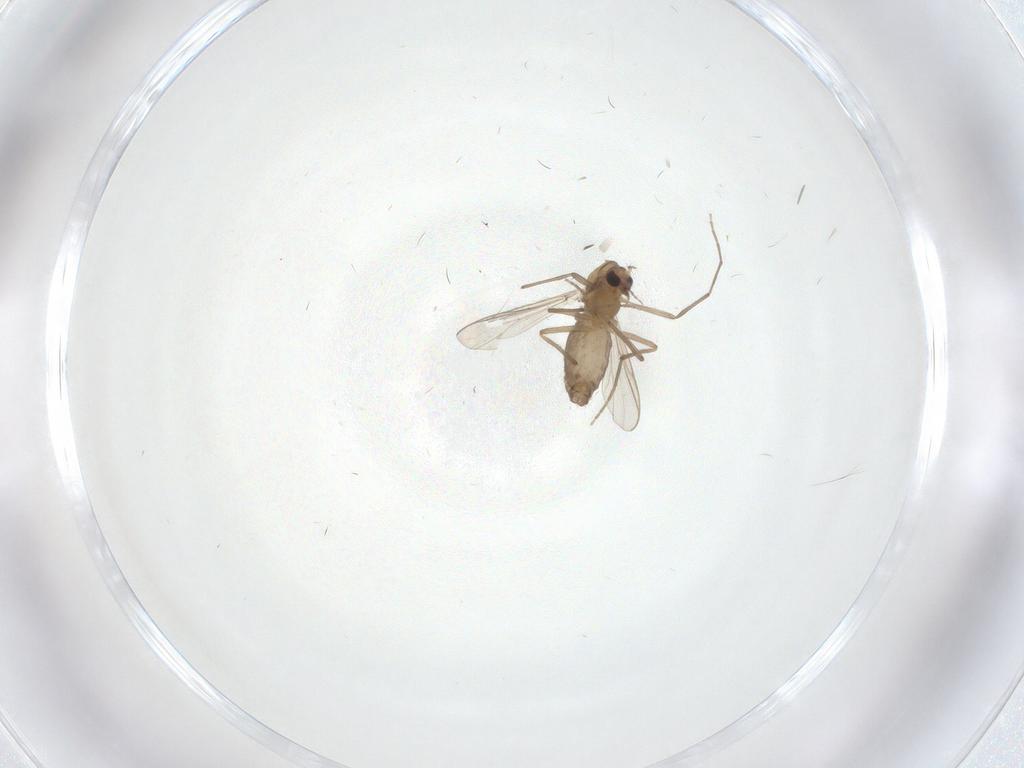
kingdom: Animalia
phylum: Arthropoda
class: Insecta
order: Diptera
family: Chironomidae
